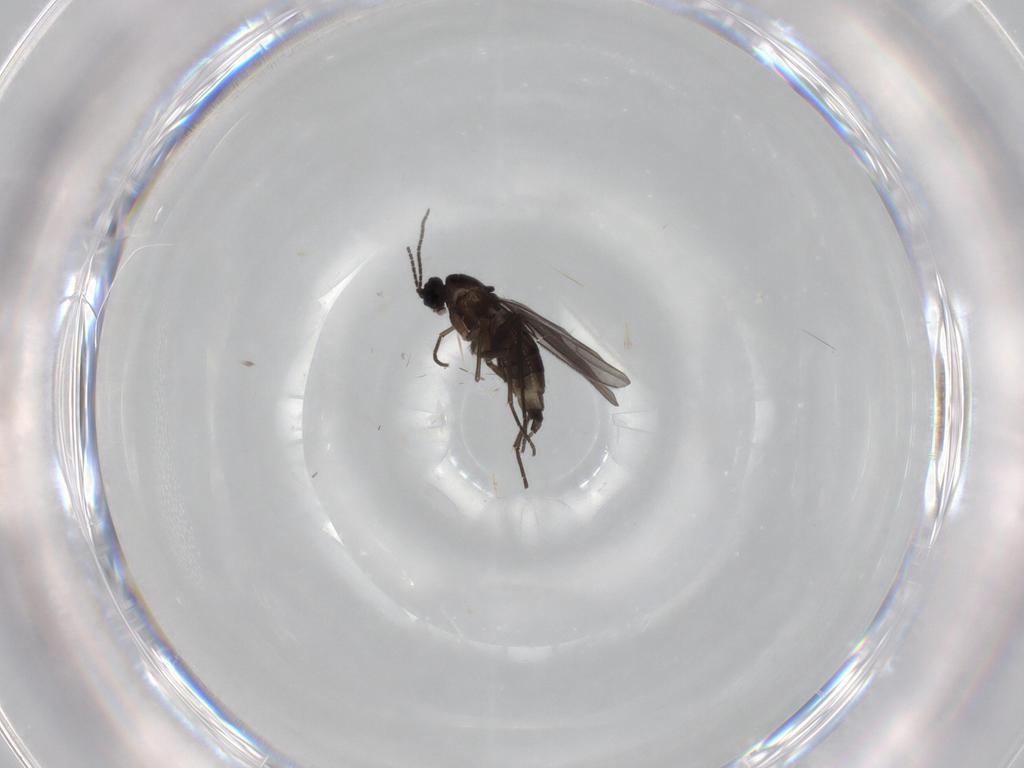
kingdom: Animalia
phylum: Arthropoda
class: Insecta
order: Diptera
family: Sciaridae
